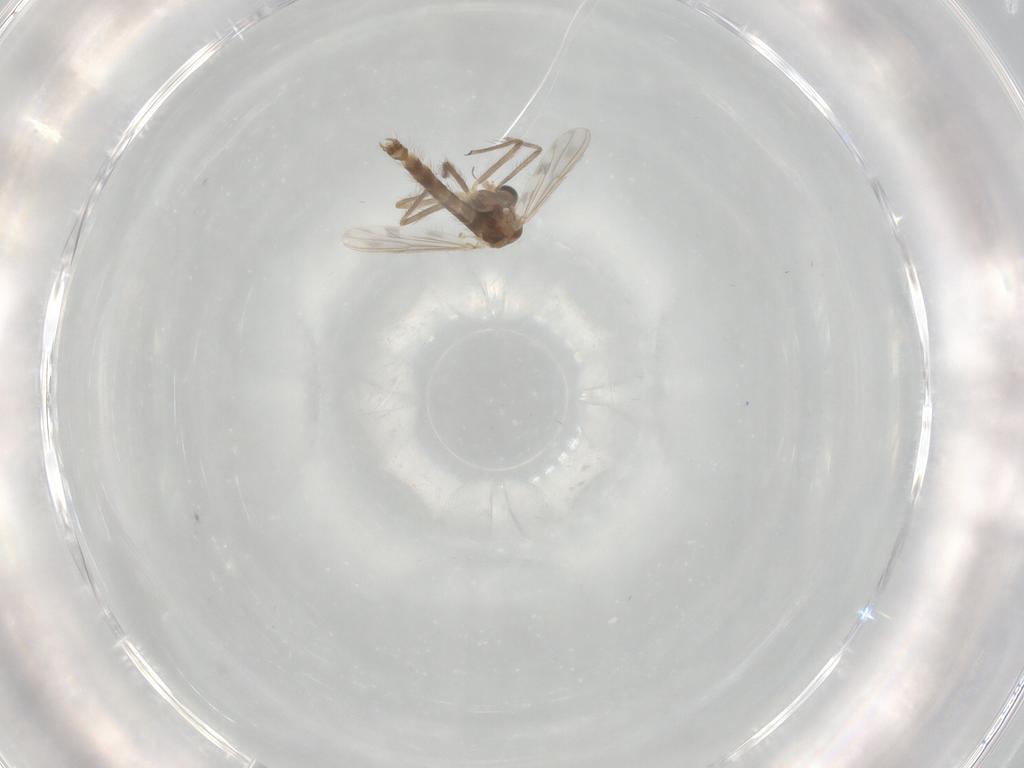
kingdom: Animalia
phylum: Arthropoda
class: Insecta
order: Diptera
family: Chironomidae
